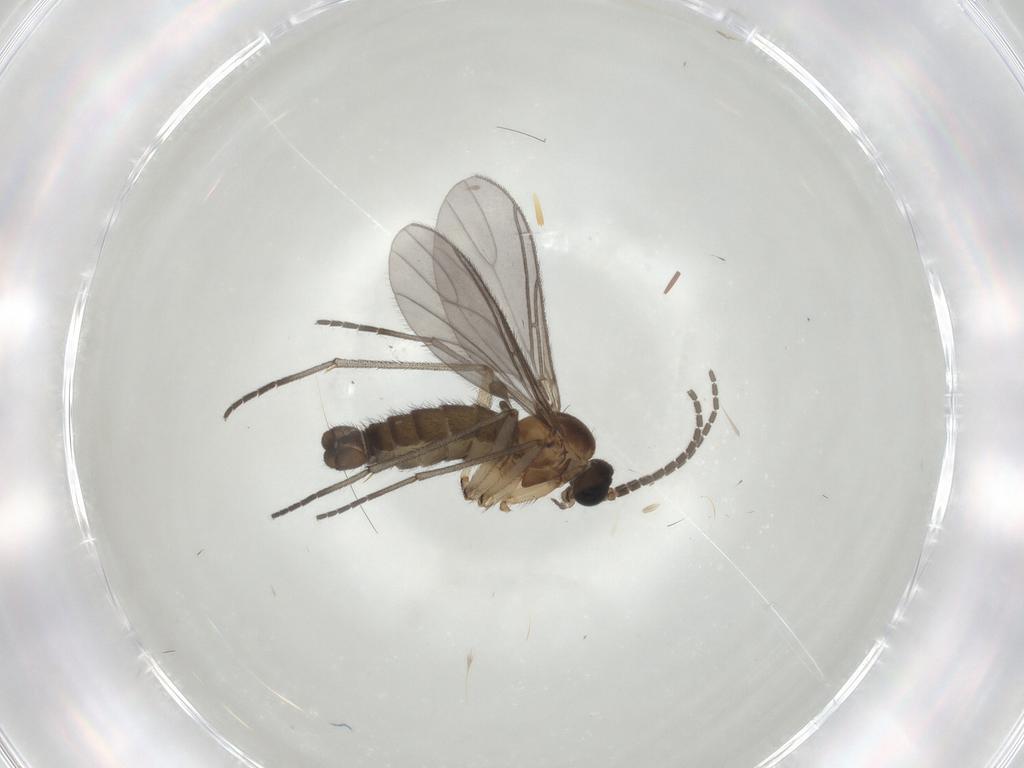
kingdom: Animalia
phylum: Arthropoda
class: Insecta
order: Diptera
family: Sciaridae
